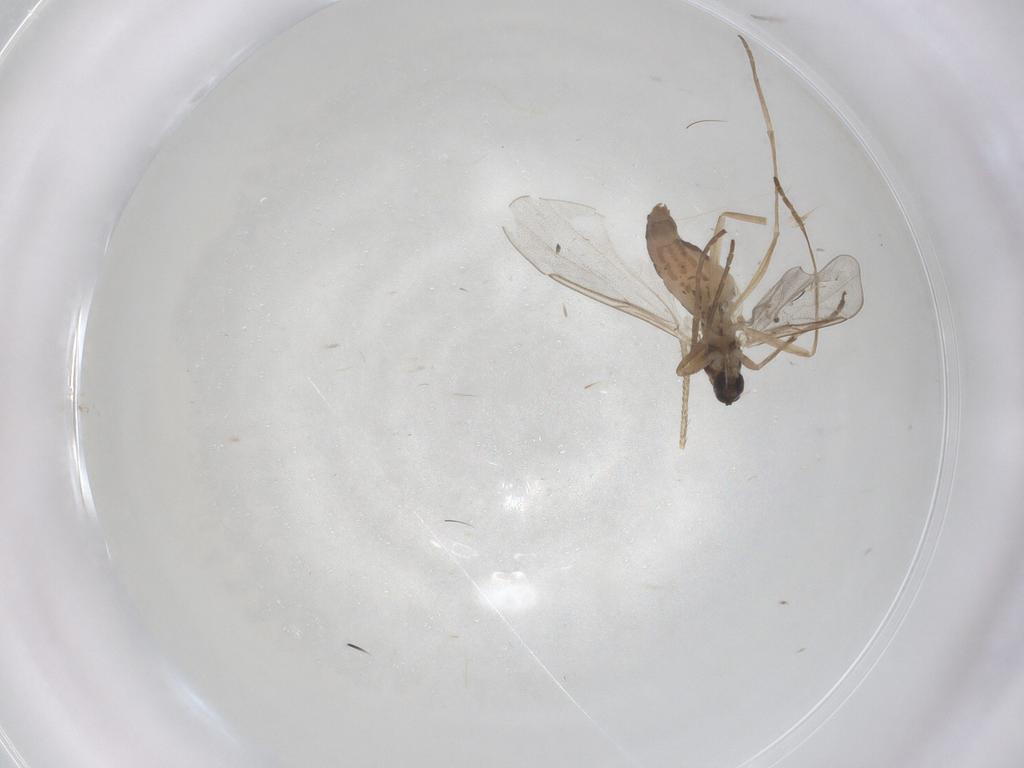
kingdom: Animalia
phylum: Arthropoda
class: Insecta
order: Diptera
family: Cecidomyiidae
